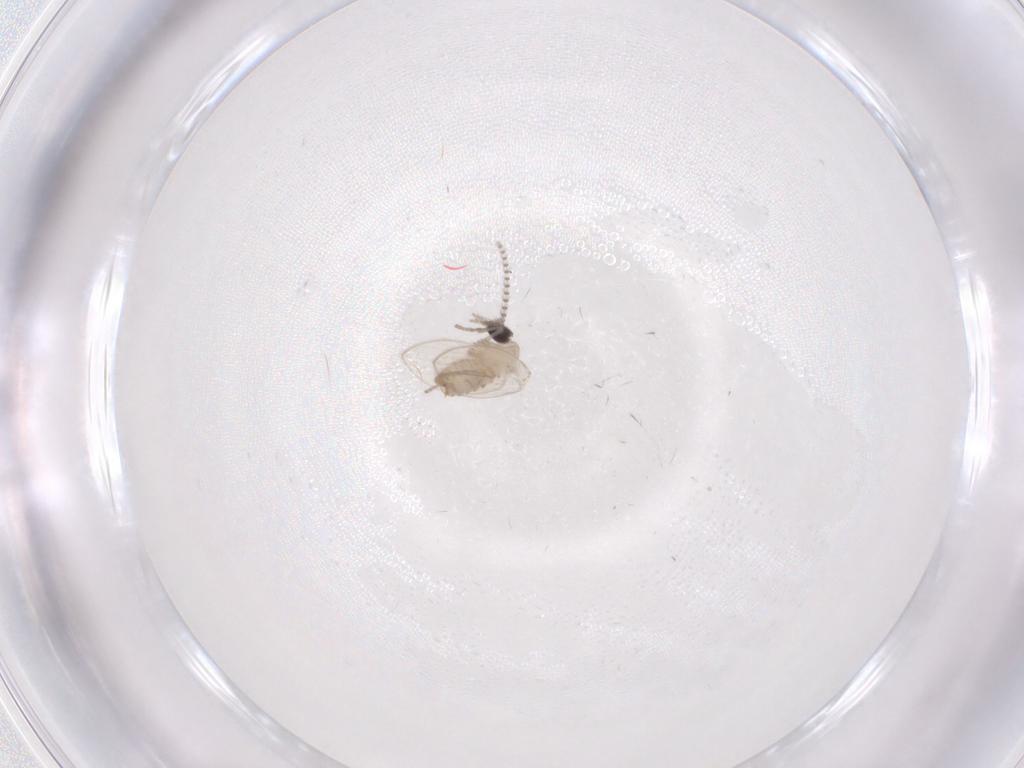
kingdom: Animalia
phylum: Arthropoda
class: Insecta
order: Diptera
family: Psychodidae
